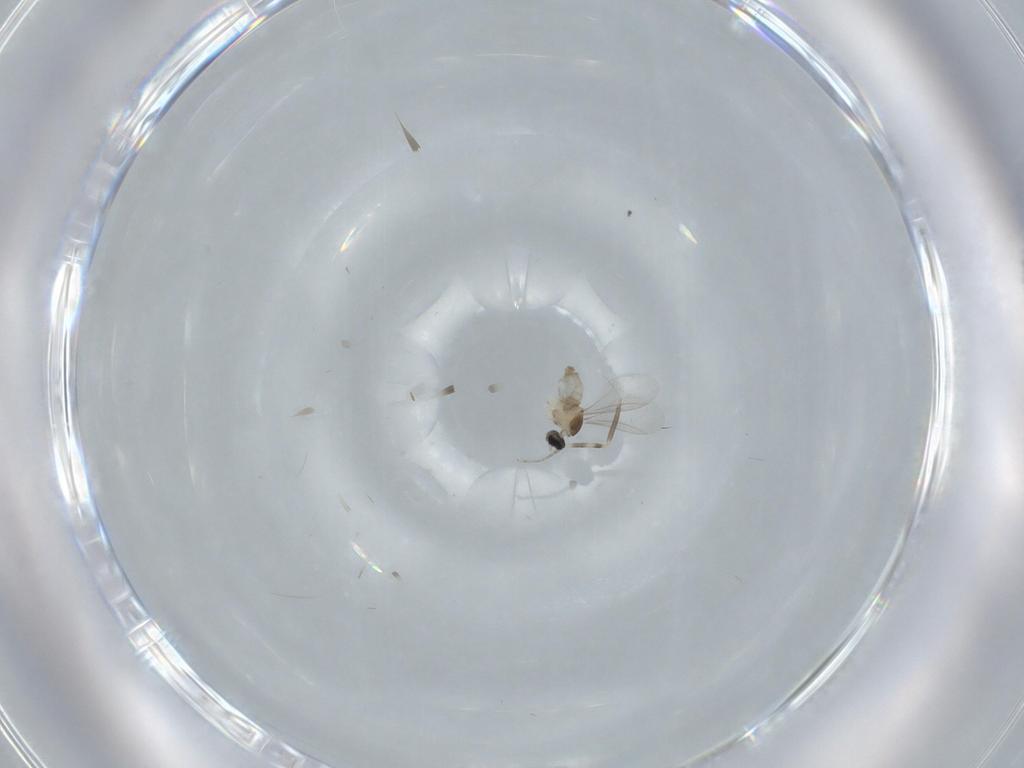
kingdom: Animalia
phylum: Arthropoda
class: Insecta
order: Diptera
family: Cecidomyiidae
